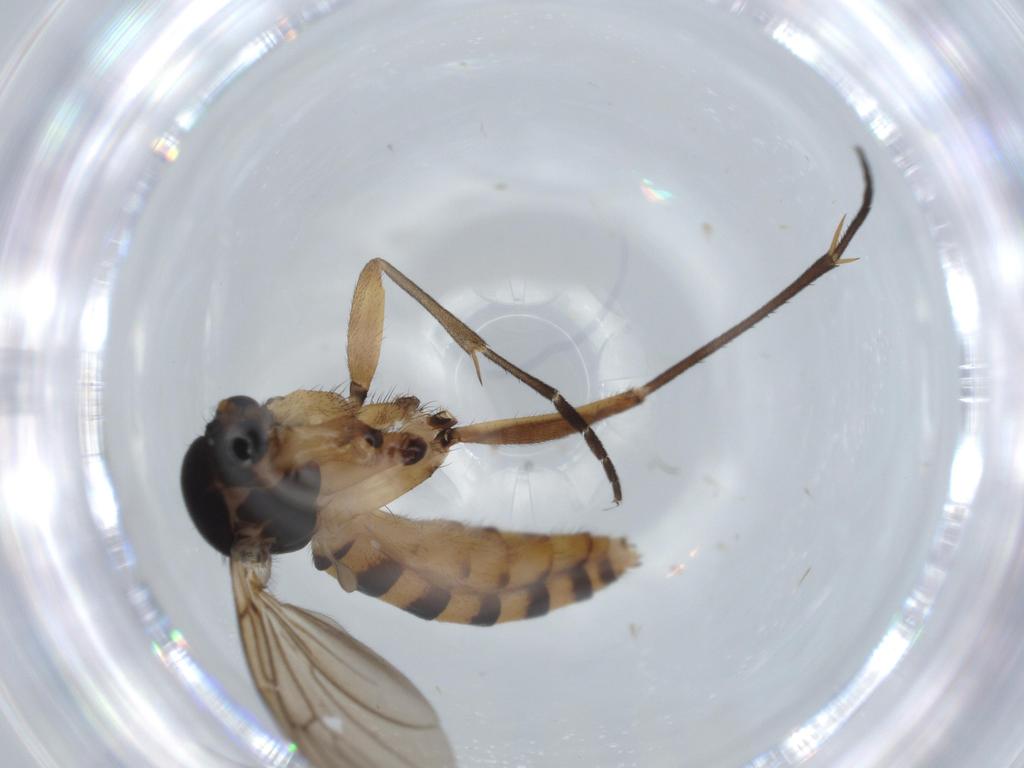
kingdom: Animalia
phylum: Arthropoda
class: Insecta
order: Diptera
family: Mycetophilidae
